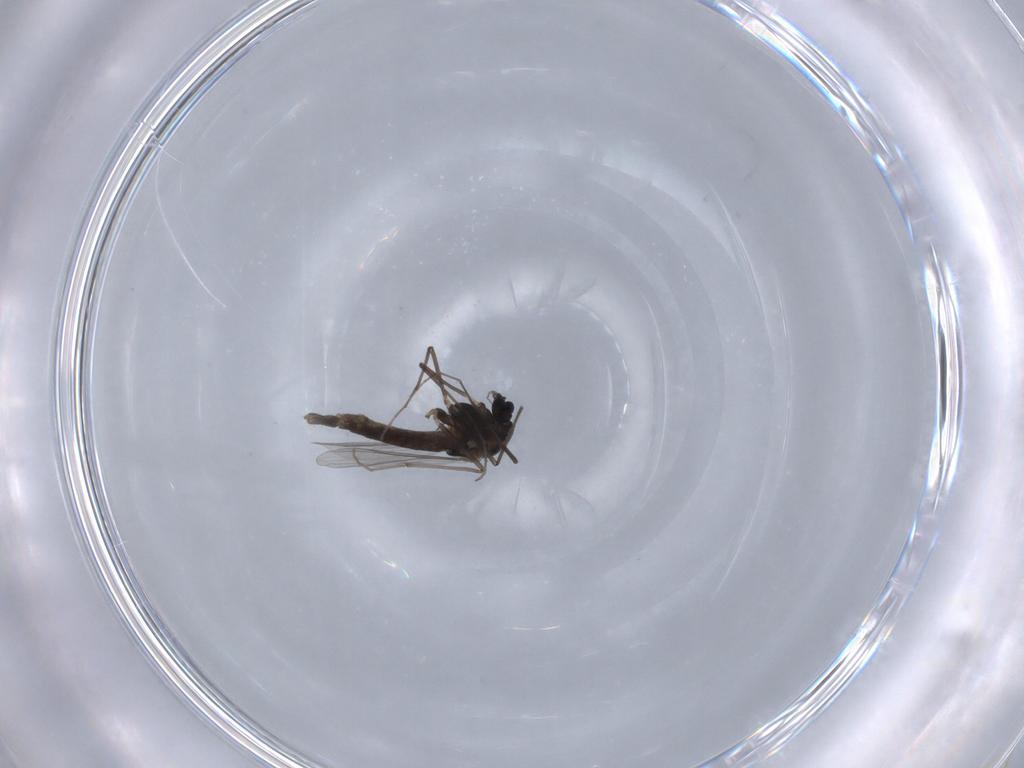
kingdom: Animalia
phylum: Arthropoda
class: Insecta
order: Diptera
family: Chironomidae
